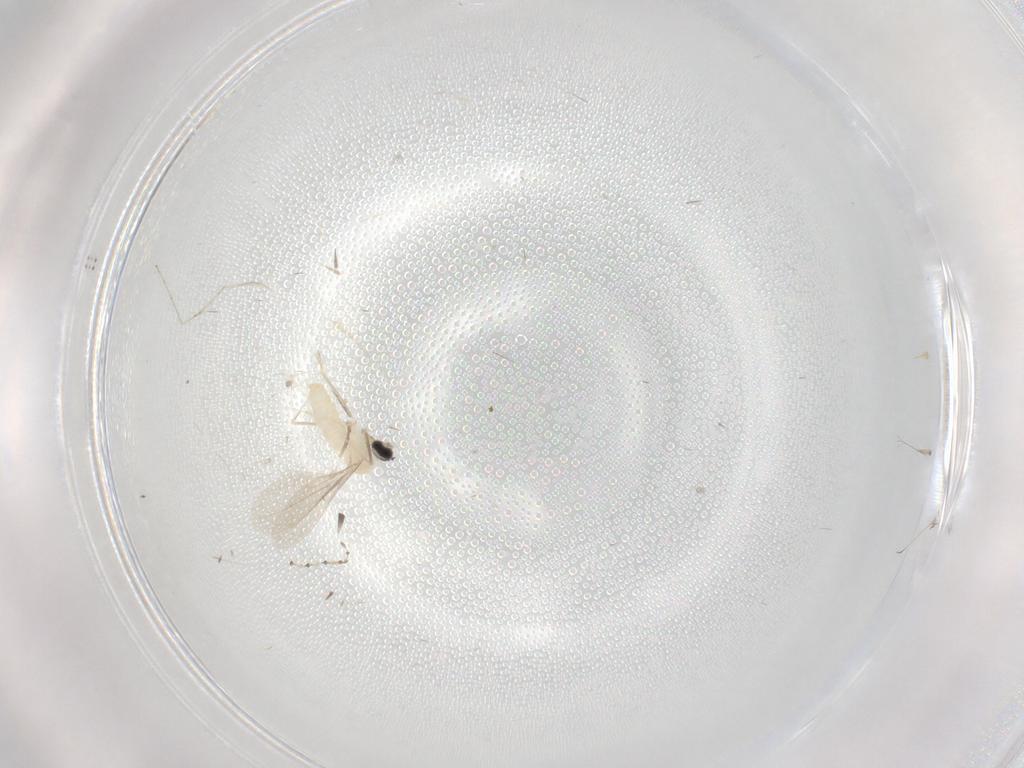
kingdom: Animalia
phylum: Arthropoda
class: Insecta
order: Diptera
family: Cecidomyiidae
